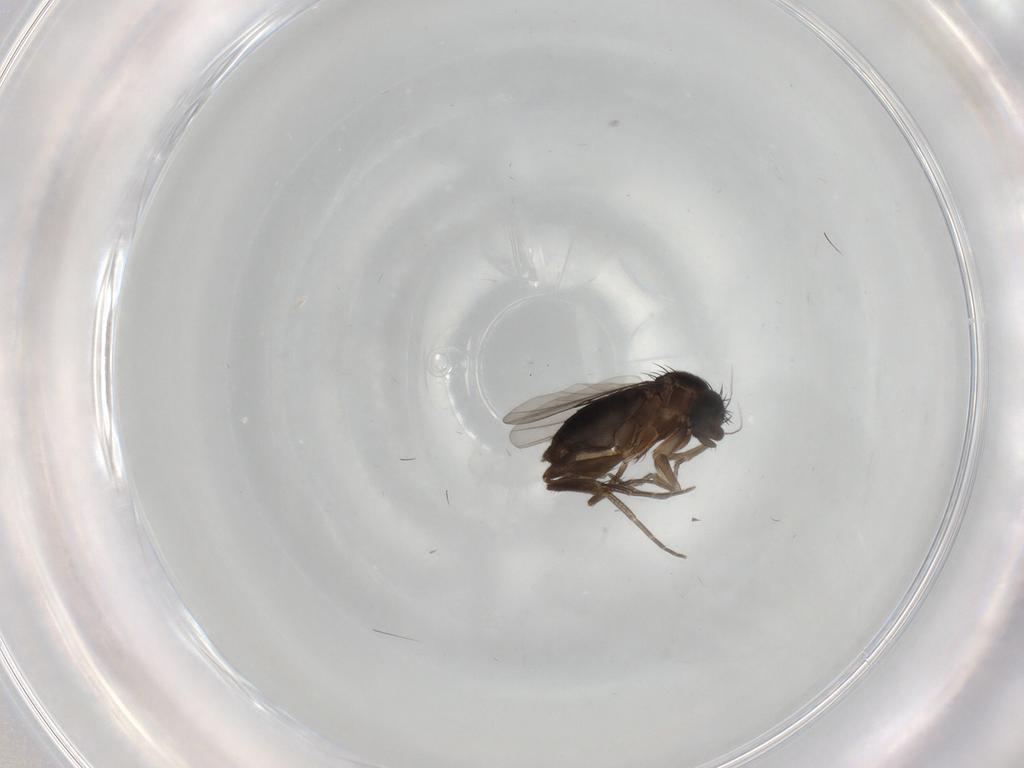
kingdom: Animalia
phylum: Arthropoda
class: Insecta
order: Diptera
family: Phoridae
